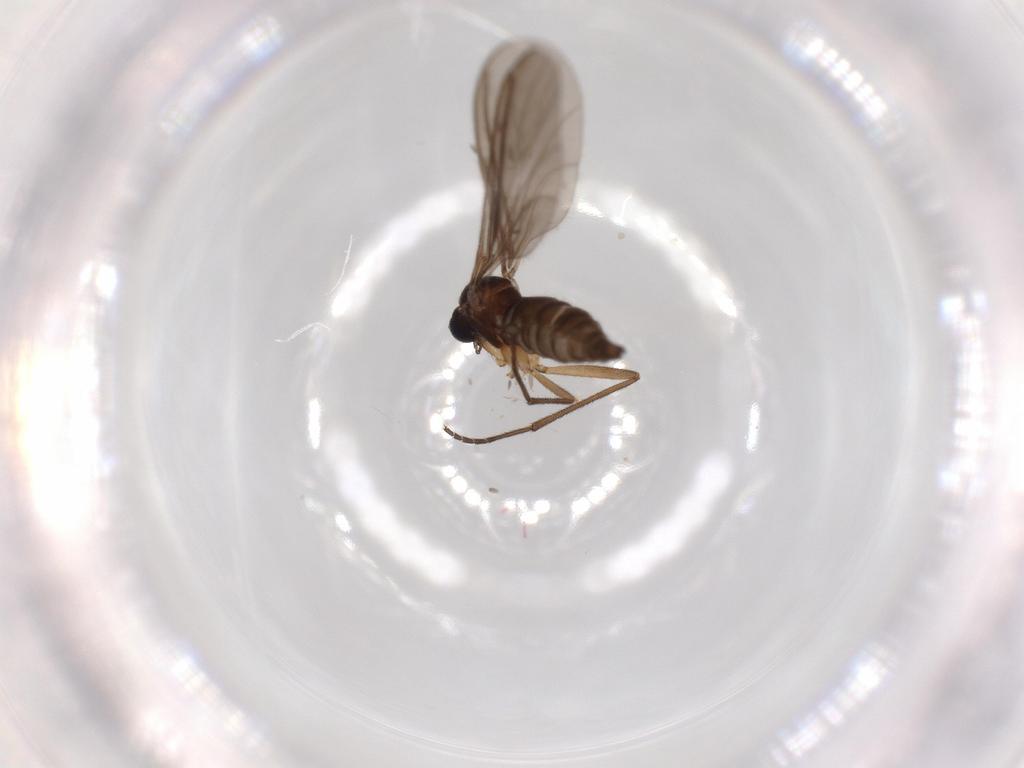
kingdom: Animalia
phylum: Arthropoda
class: Insecta
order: Diptera
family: Sciaridae
